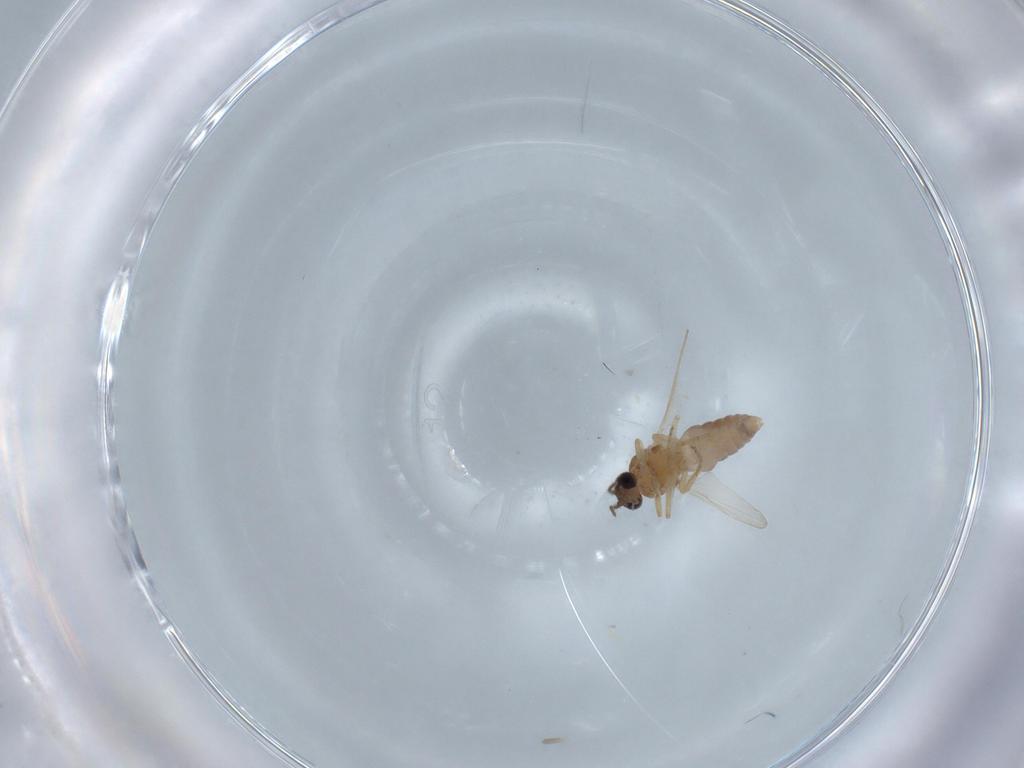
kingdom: Animalia
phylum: Arthropoda
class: Insecta
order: Diptera
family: Ceratopogonidae
